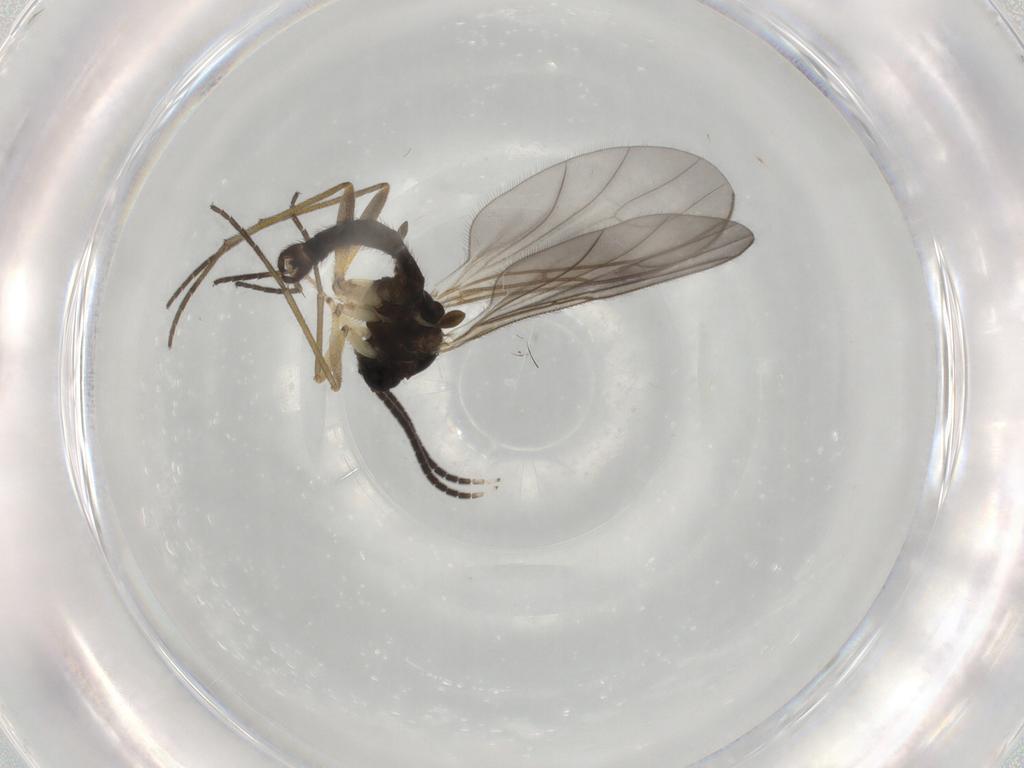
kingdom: Animalia
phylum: Arthropoda
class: Insecta
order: Diptera
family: Sciaridae
